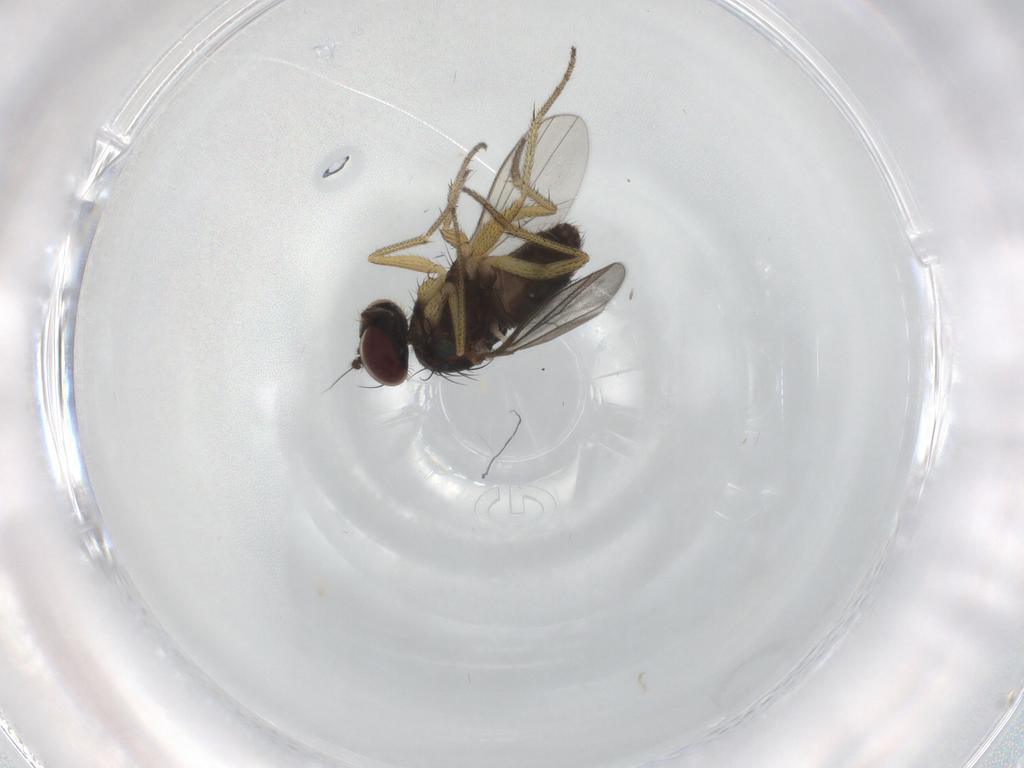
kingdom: Animalia
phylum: Arthropoda
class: Insecta
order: Diptera
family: Dolichopodidae
